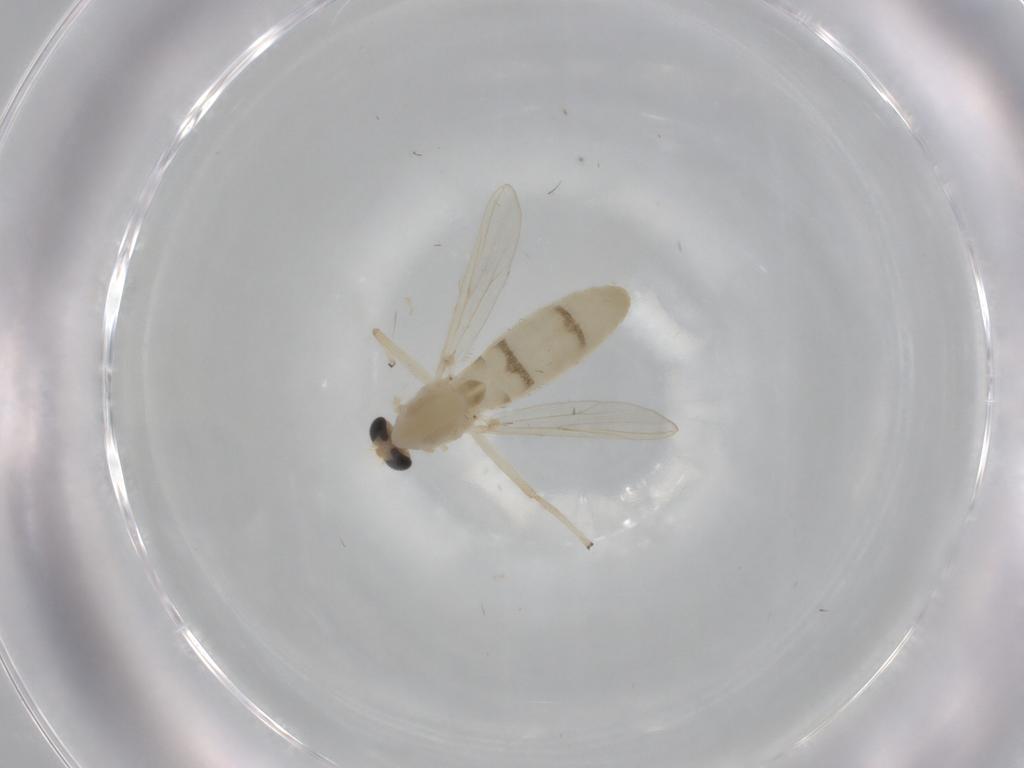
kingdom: Animalia
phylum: Arthropoda
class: Insecta
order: Diptera
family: Chironomidae
